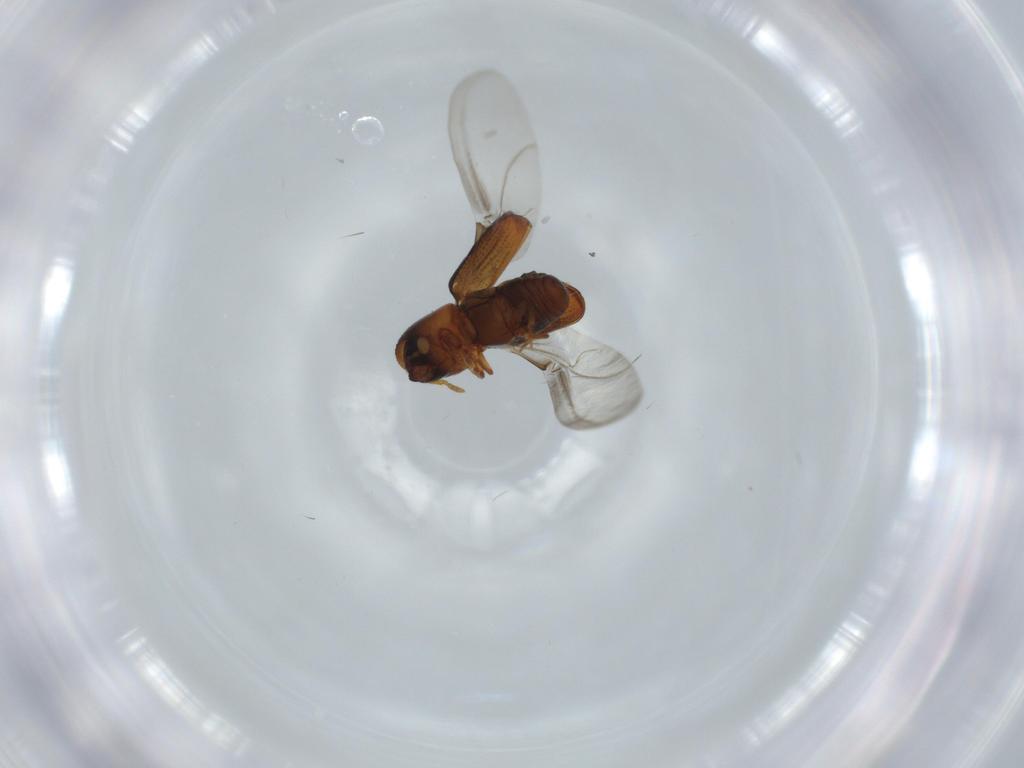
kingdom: Animalia
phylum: Arthropoda
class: Insecta
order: Coleoptera
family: Curculionidae
